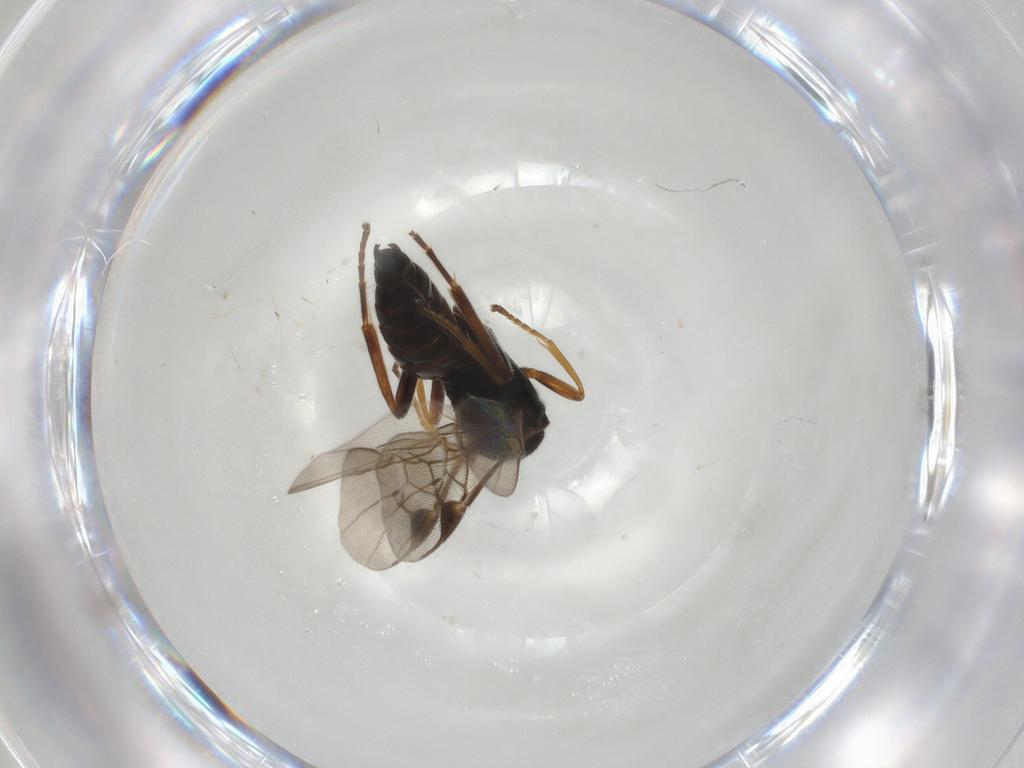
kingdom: Animalia
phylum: Arthropoda
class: Insecta
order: Hymenoptera
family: Braconidae
